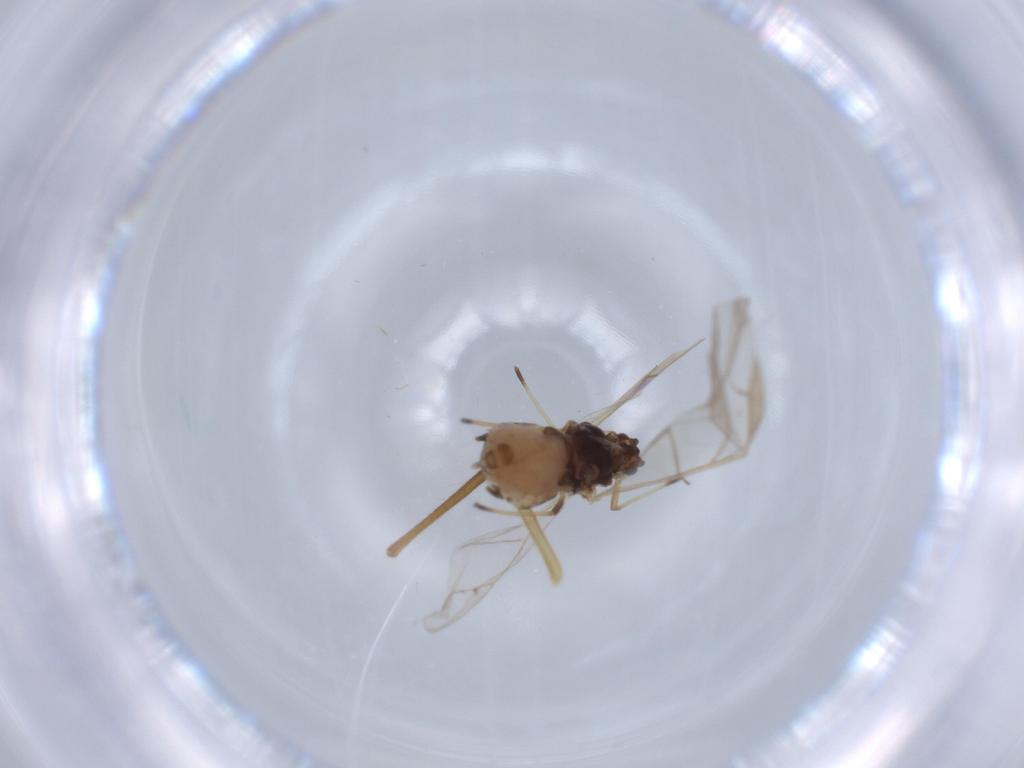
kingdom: Animalia
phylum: Arthropoda
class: Insecta
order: Hemiptera
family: Aphididae
